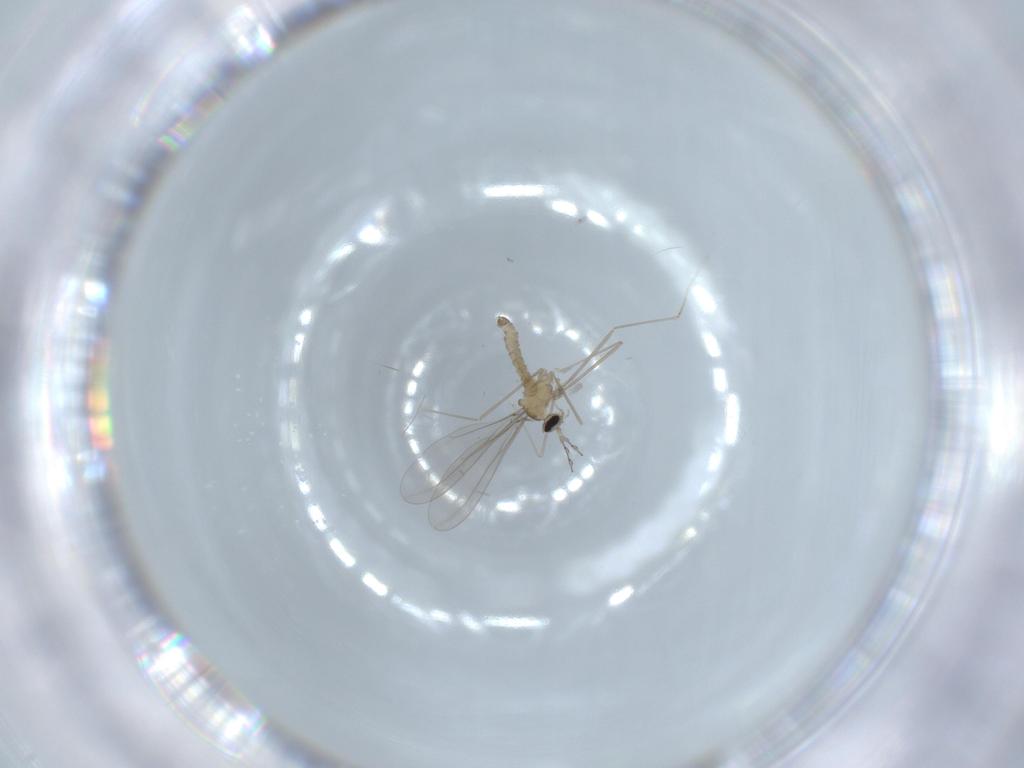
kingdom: Animalia
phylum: Arthropoda
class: Insecta
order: Diptera
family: Cecidomyiidae
